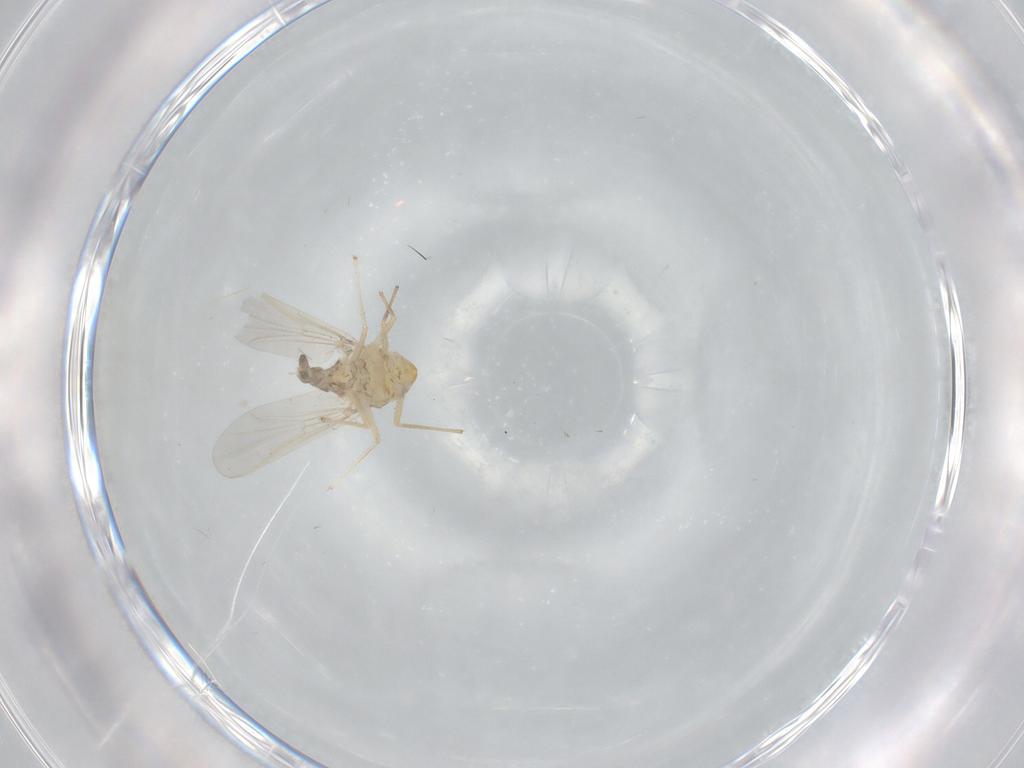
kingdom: Animalia
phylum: Arthropoda
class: Insecta
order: Diptera
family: Chironomidae
